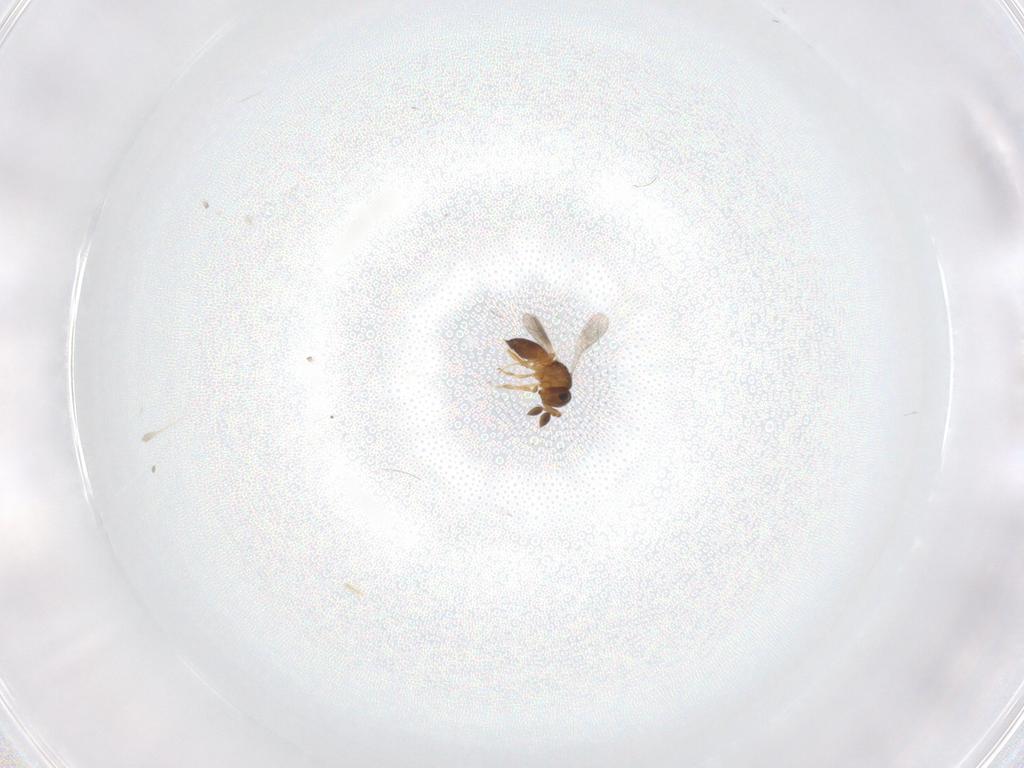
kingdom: Animalia
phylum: Arthropoda
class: Insecta
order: Hymenoptera
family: Scelionidae
